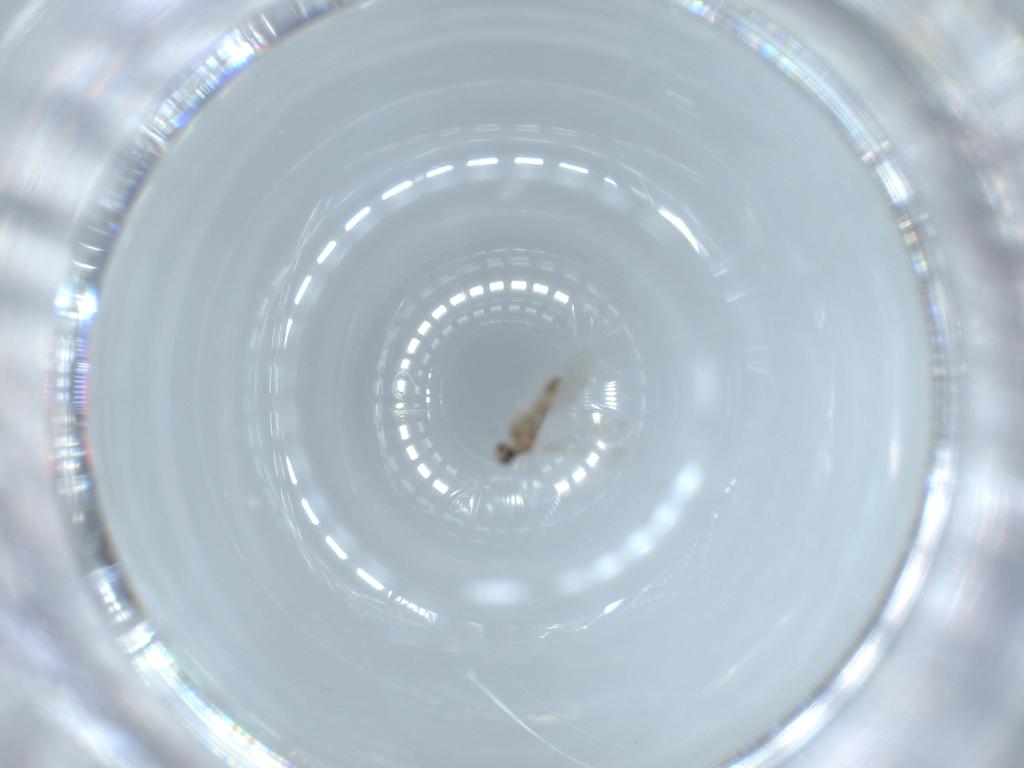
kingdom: Animalia
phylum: Arthropoda
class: Insecta
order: Diptera
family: Cecidomyiidae
